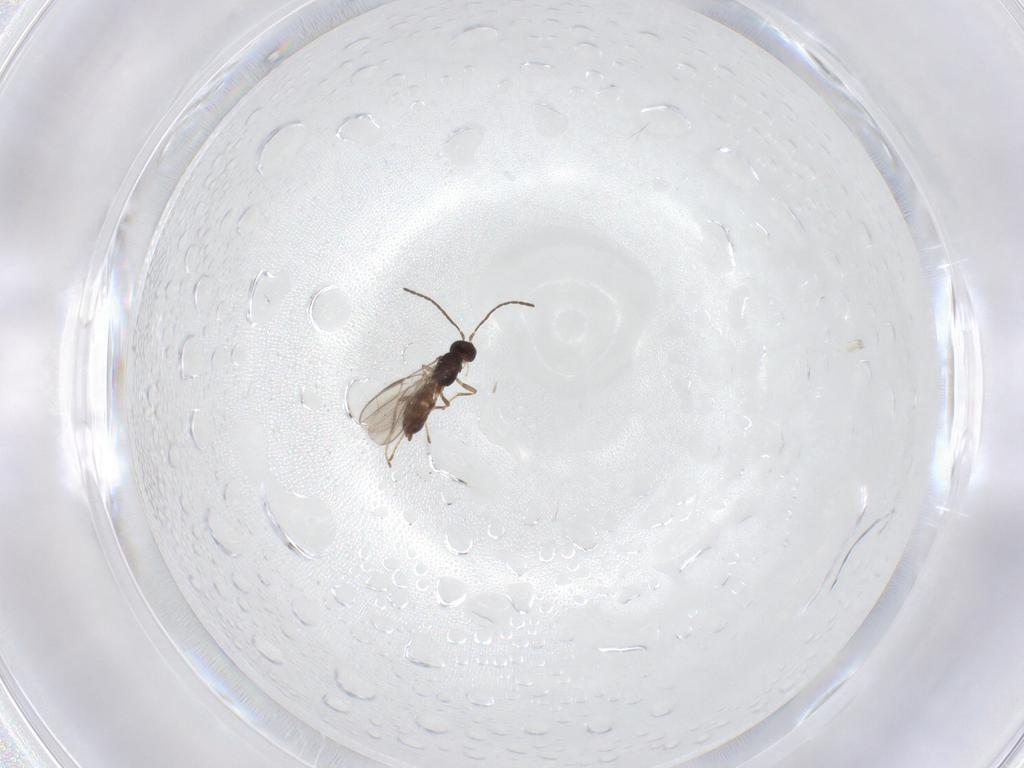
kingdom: Animalia
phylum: Arthropoda
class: Insecta
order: Hymenoptera
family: Braconidae
